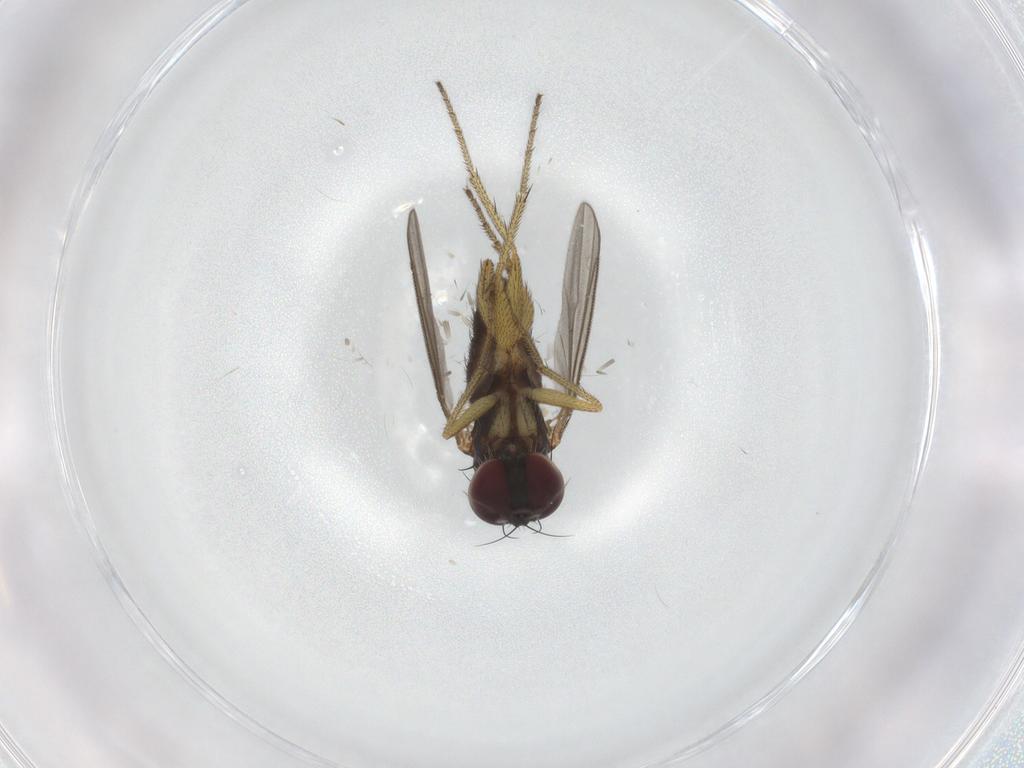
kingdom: Animalia
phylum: Arthropoda
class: Insecta
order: Diptera
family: Dolichopodidae
